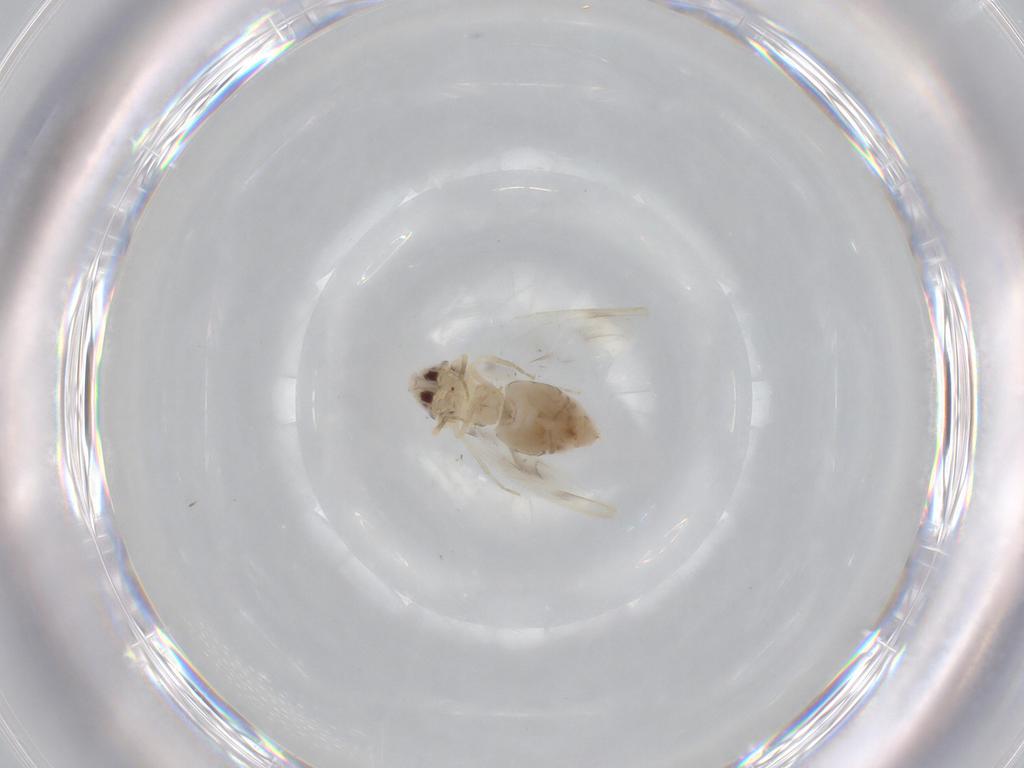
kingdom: Animalia
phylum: Arthropoda
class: Insecta
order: Hemiptera
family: Aleyrodidae
